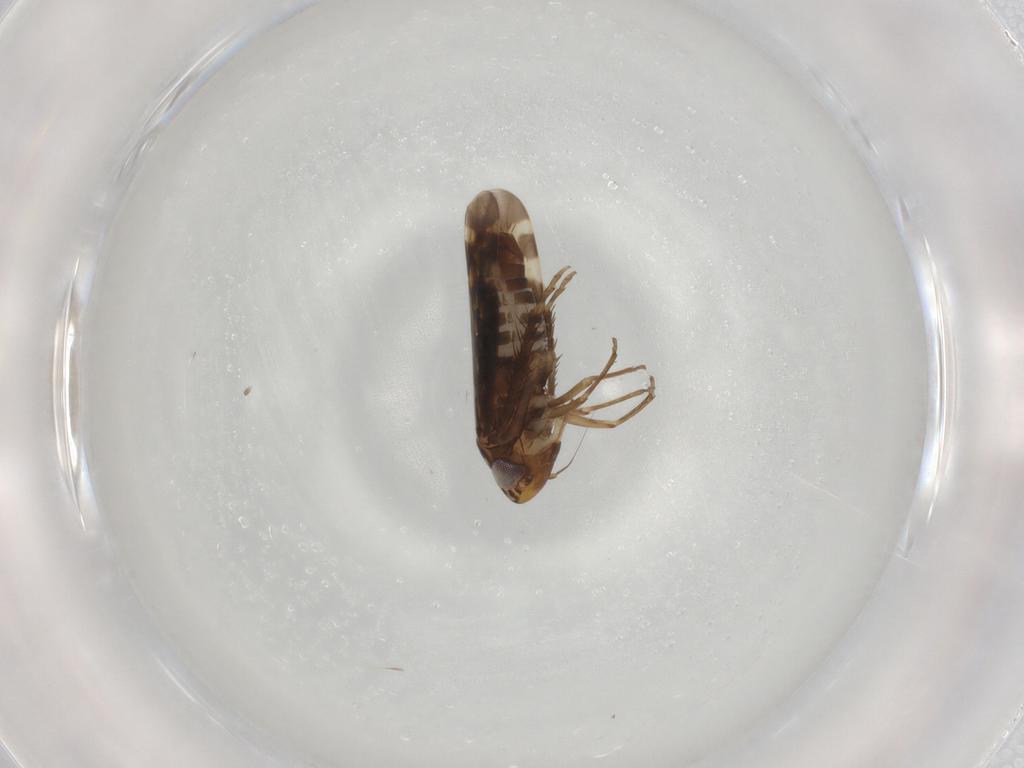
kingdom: Animalia
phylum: Arthropoda
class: Insecta
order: Hemiptera
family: Cicadellidae
